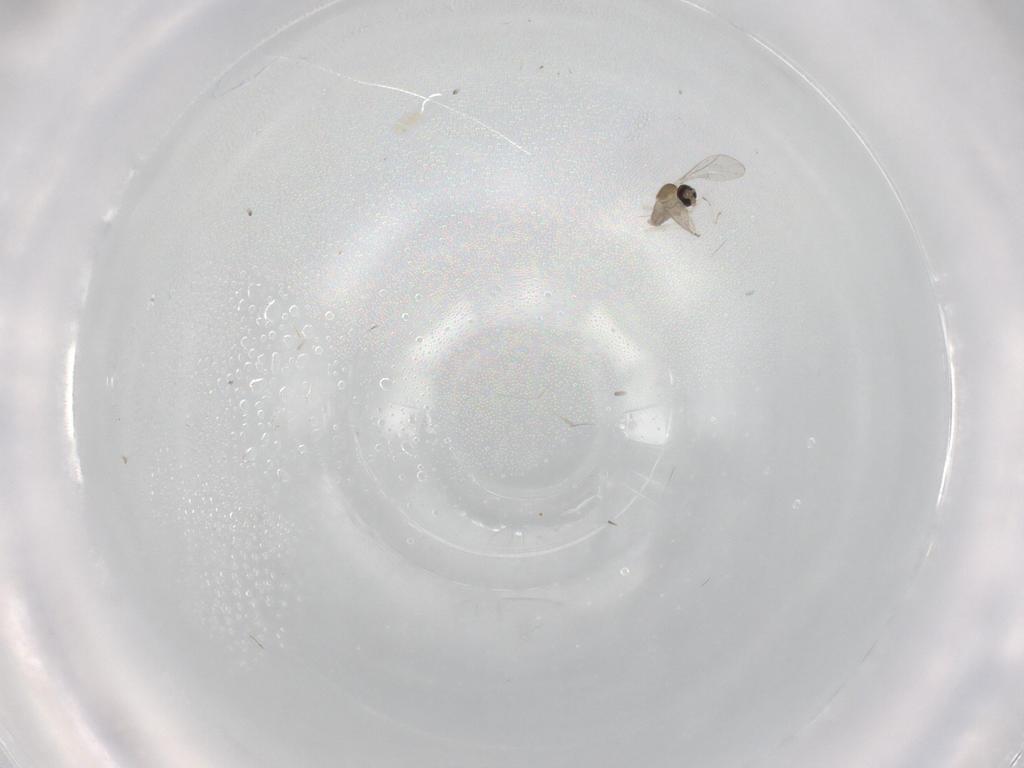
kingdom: Animalia
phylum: Arthropoda
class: Insecta
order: Diptera
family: Cecidomyiidae
